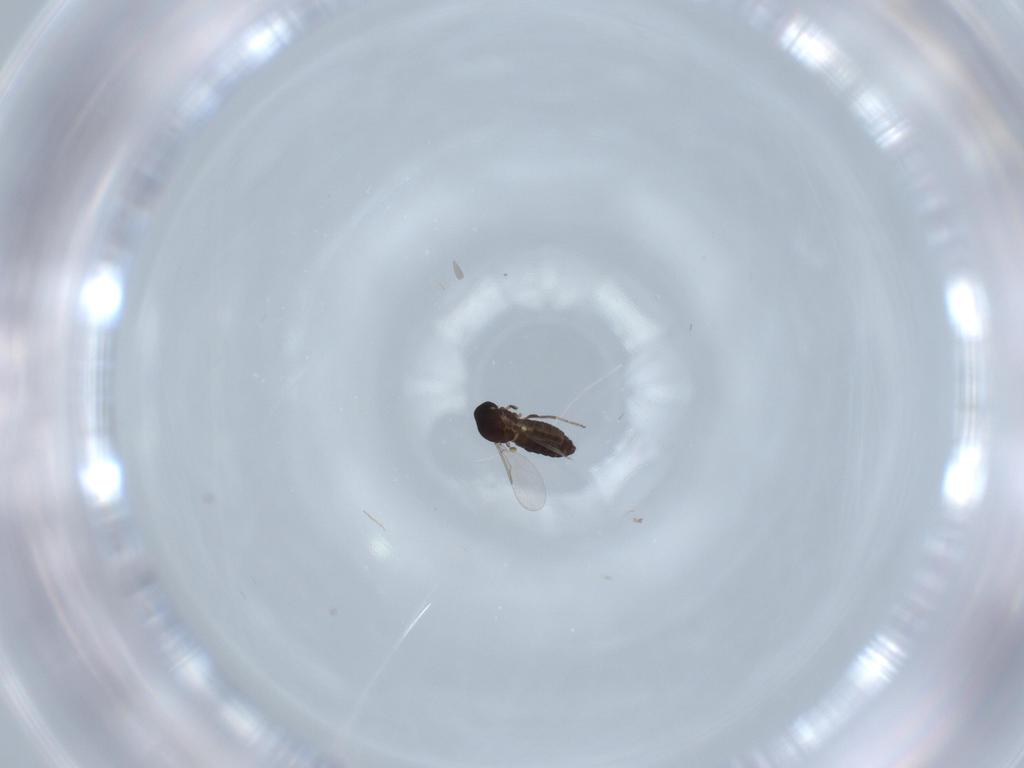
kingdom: Animalia
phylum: Arthropoda
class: Insecta
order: Diptera
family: Ceratopogonidae
